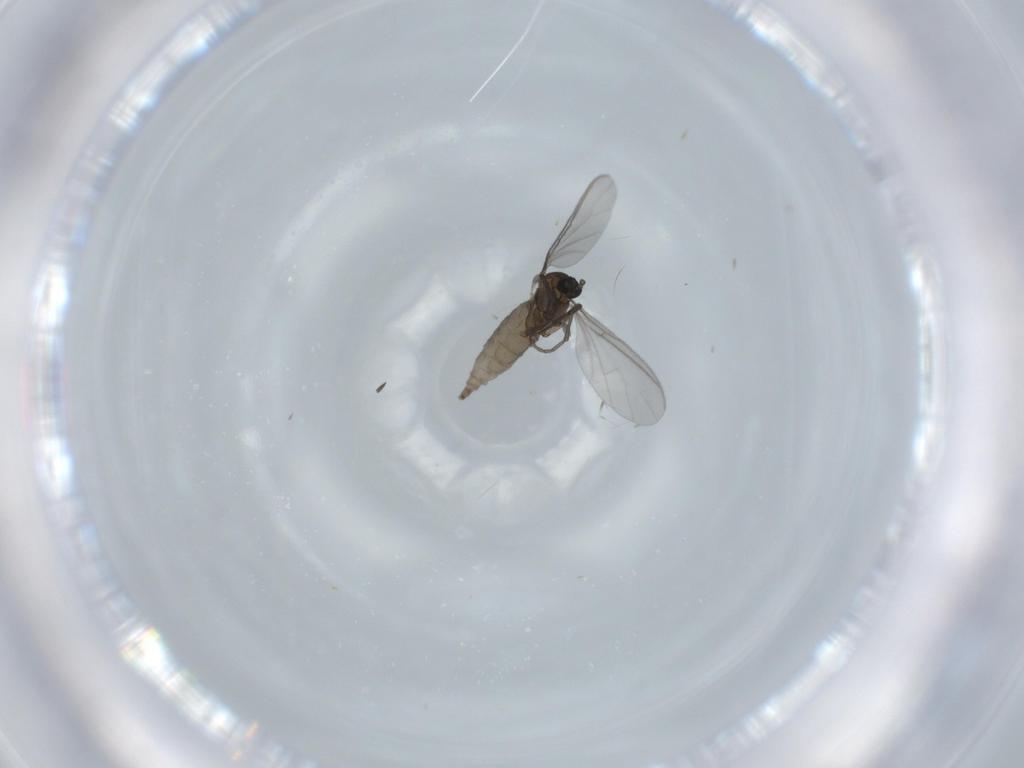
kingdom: Animalia
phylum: Arthropoda
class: Insecta
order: Diptera
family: Sciaridae
